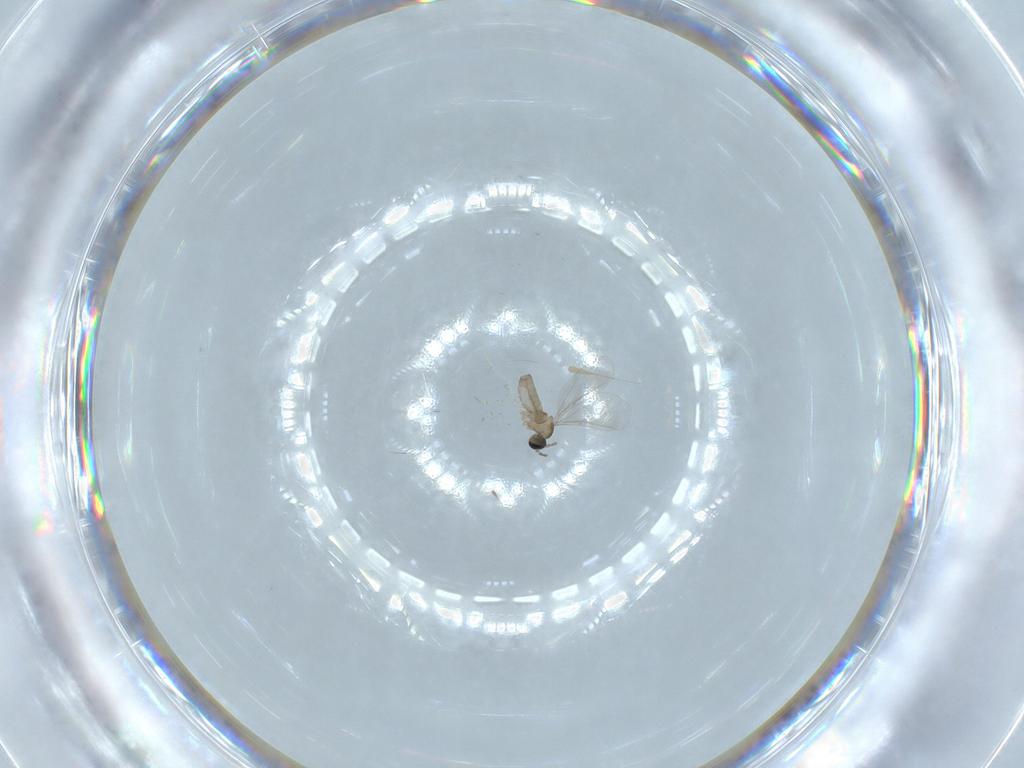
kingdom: Animalia
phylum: Arthropoda
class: Insecta
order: Diptera
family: Cecidomyiidae
